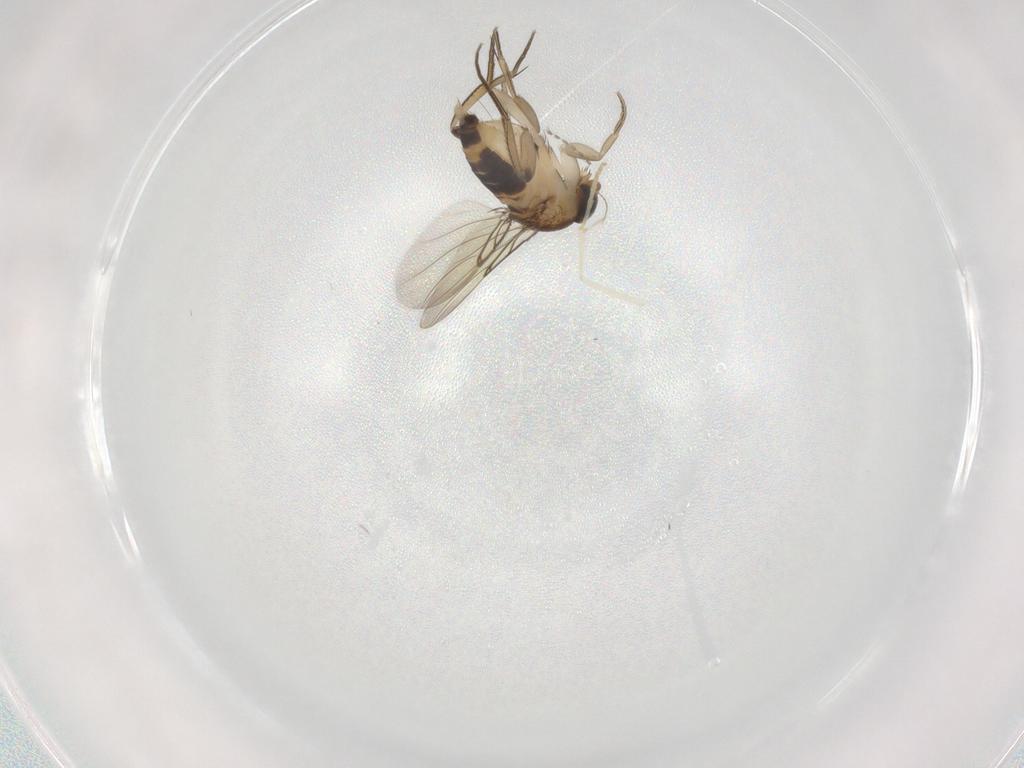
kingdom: Animalia
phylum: Arthropoda
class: Insecta
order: Diptera
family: Phoridae
